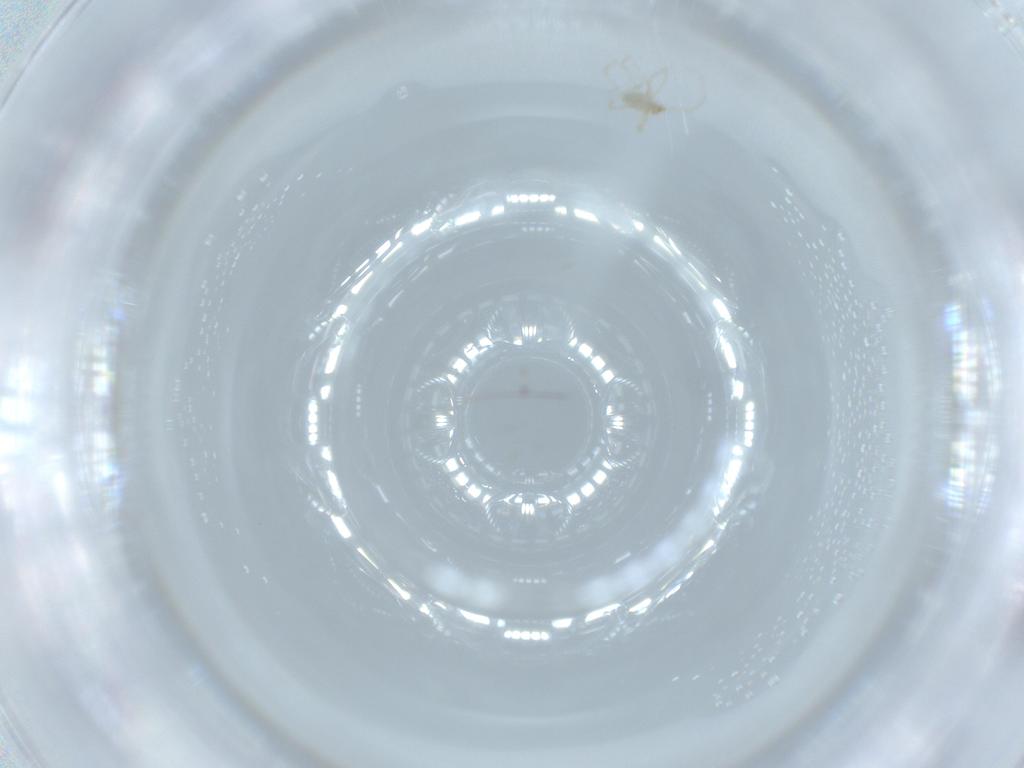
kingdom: Animalia
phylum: Arthropoda
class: Arachnida
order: Trombidiformes
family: Erythraeidae
